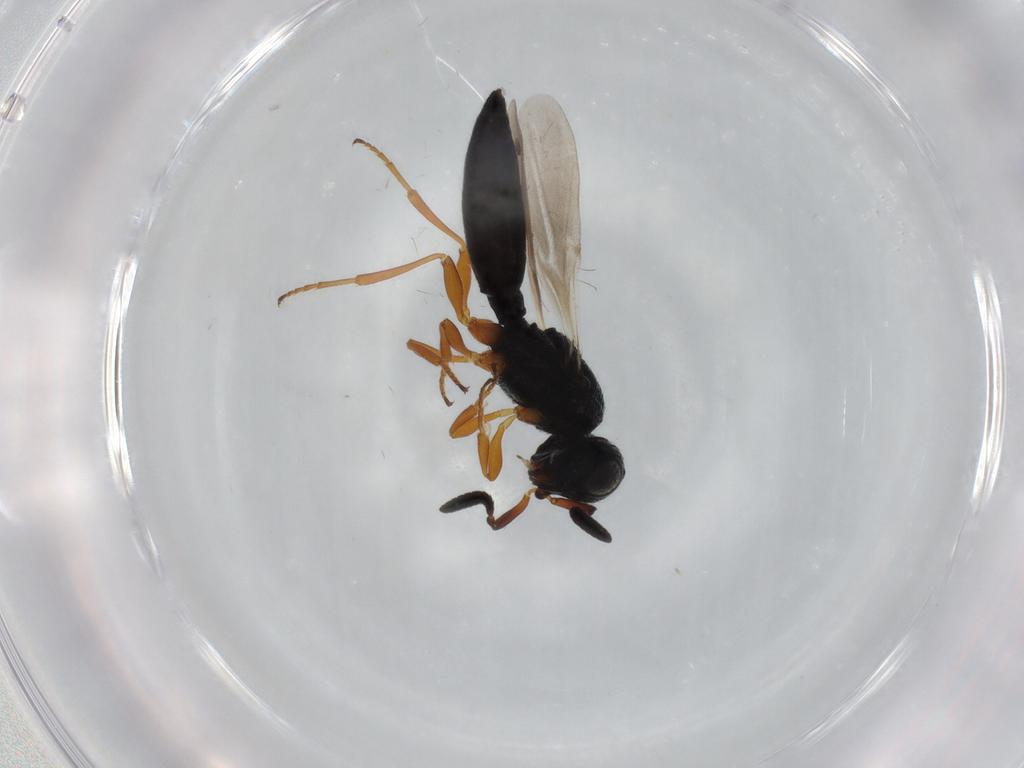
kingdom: Animalia
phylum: Arthropoda
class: Insecta
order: Hymenoptera
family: Scelionidae
